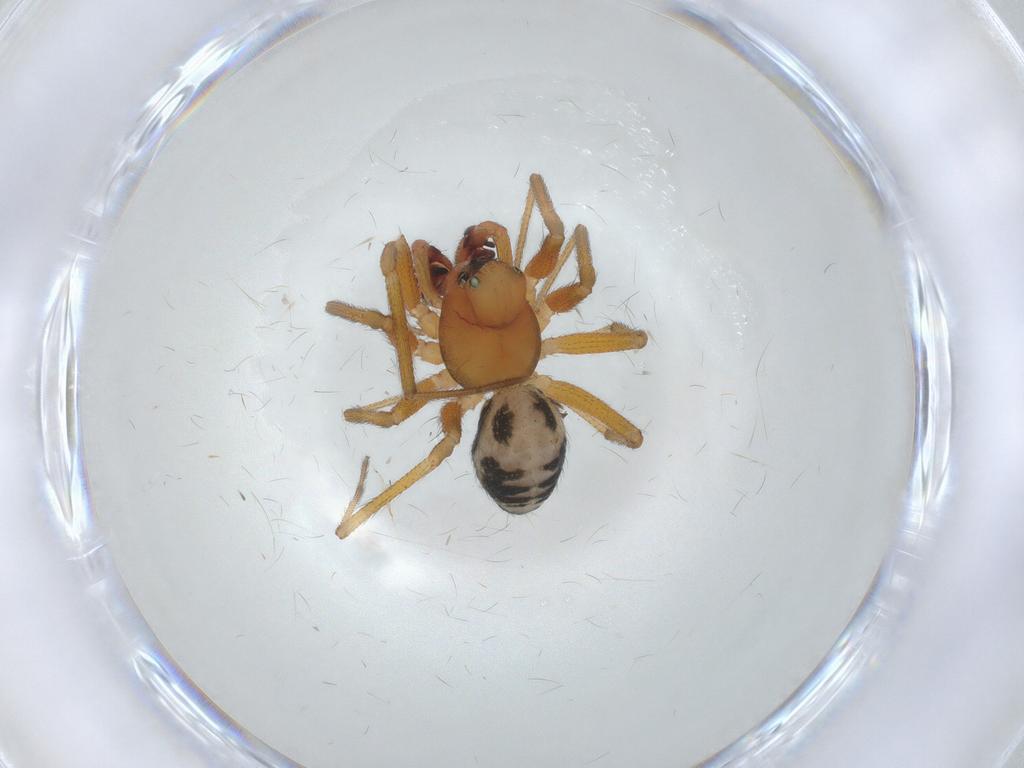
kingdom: Animalia
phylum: Arthropoda
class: Arachnida
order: Araneae
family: Linyphiidae
